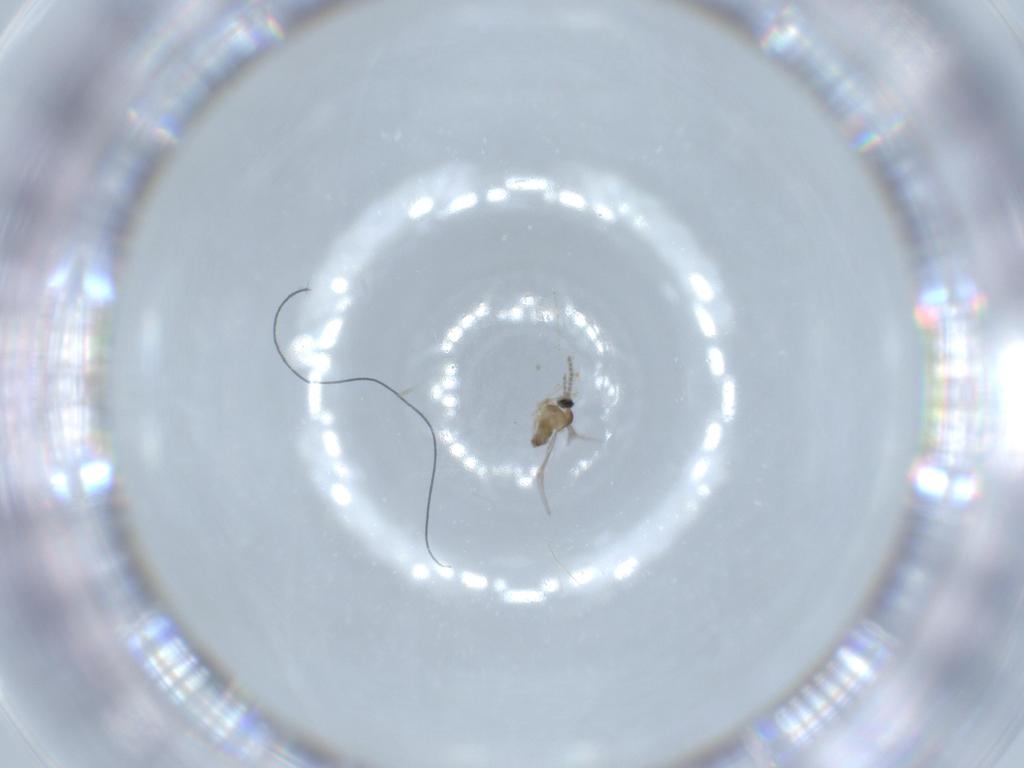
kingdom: Animalia
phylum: Arthropoda
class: Insecta
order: Diptera
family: Cecidomyiidae
